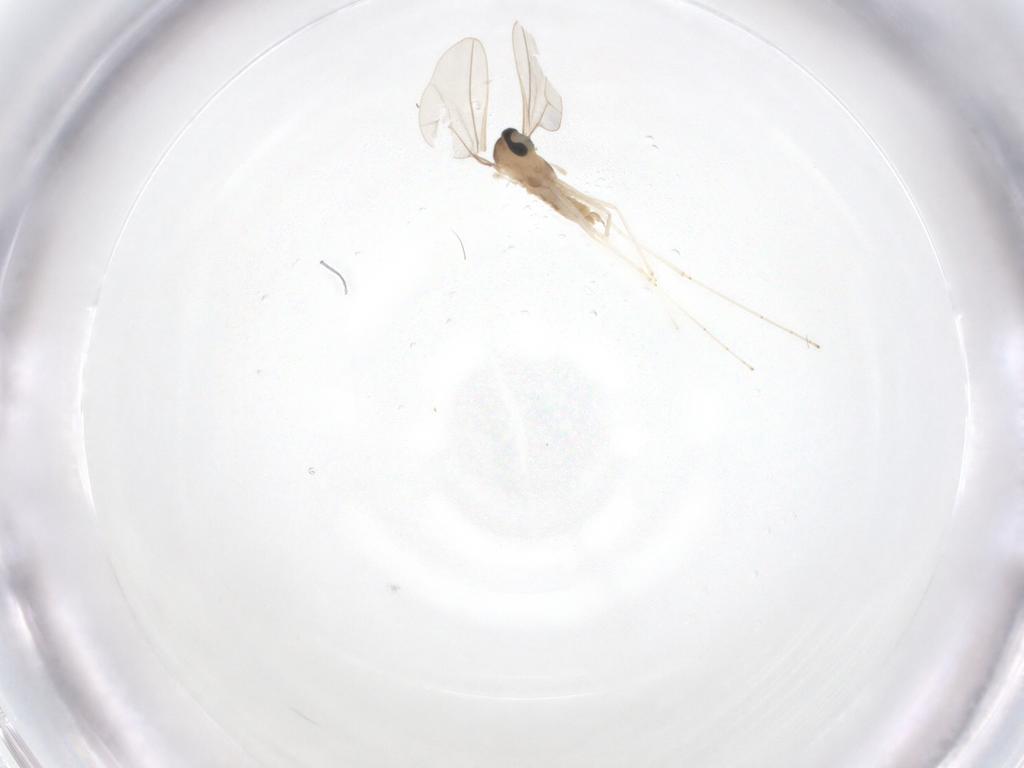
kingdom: Animalia
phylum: Arthropoda
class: Insecta
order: Diptera
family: Cecidomyiidae
